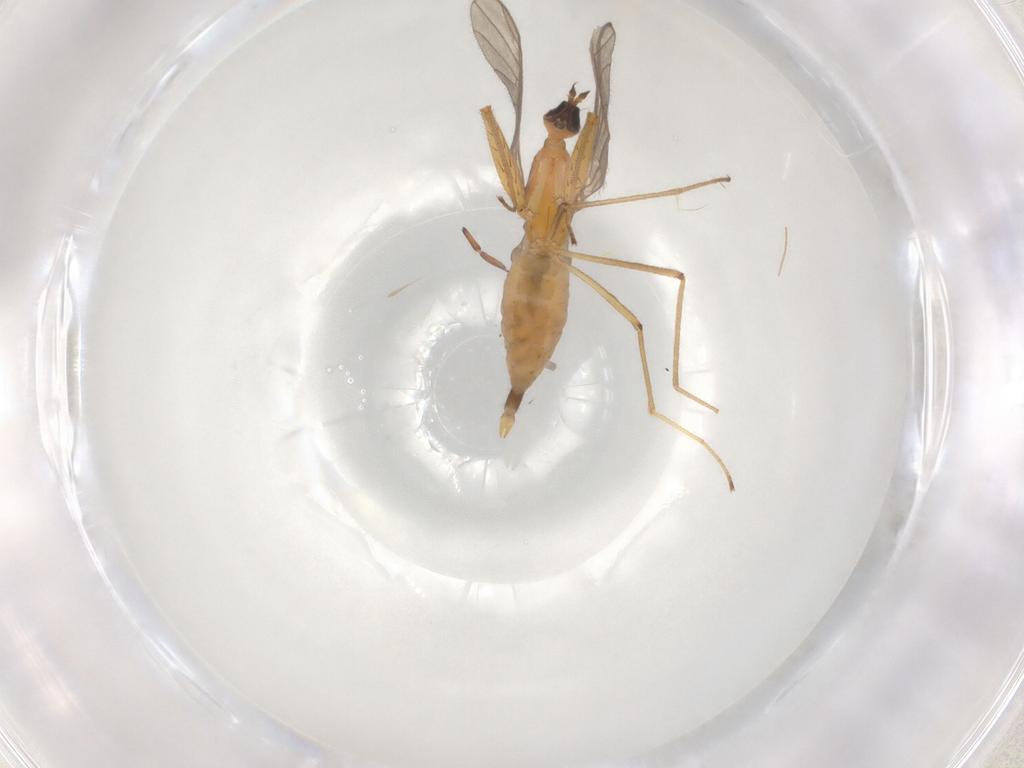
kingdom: Animalia
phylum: Arthropoda
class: Insecta
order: Diptera
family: Empididae
